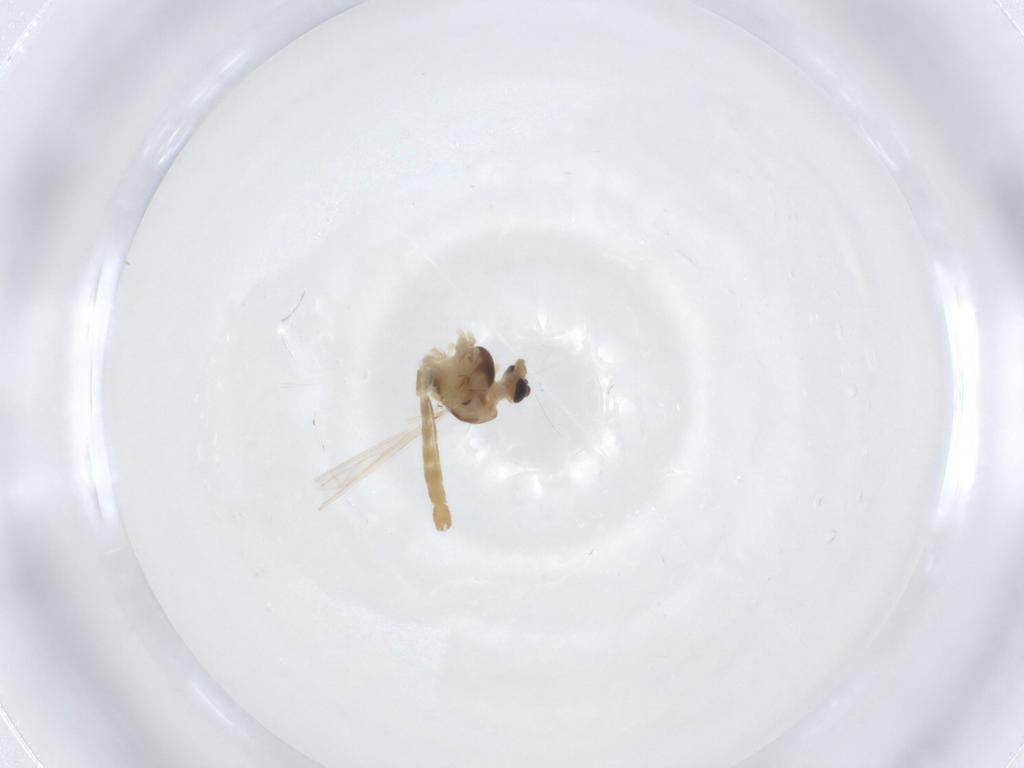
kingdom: Animalia
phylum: Arthropoda
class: Insecta
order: Diptera
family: Chironomidae
